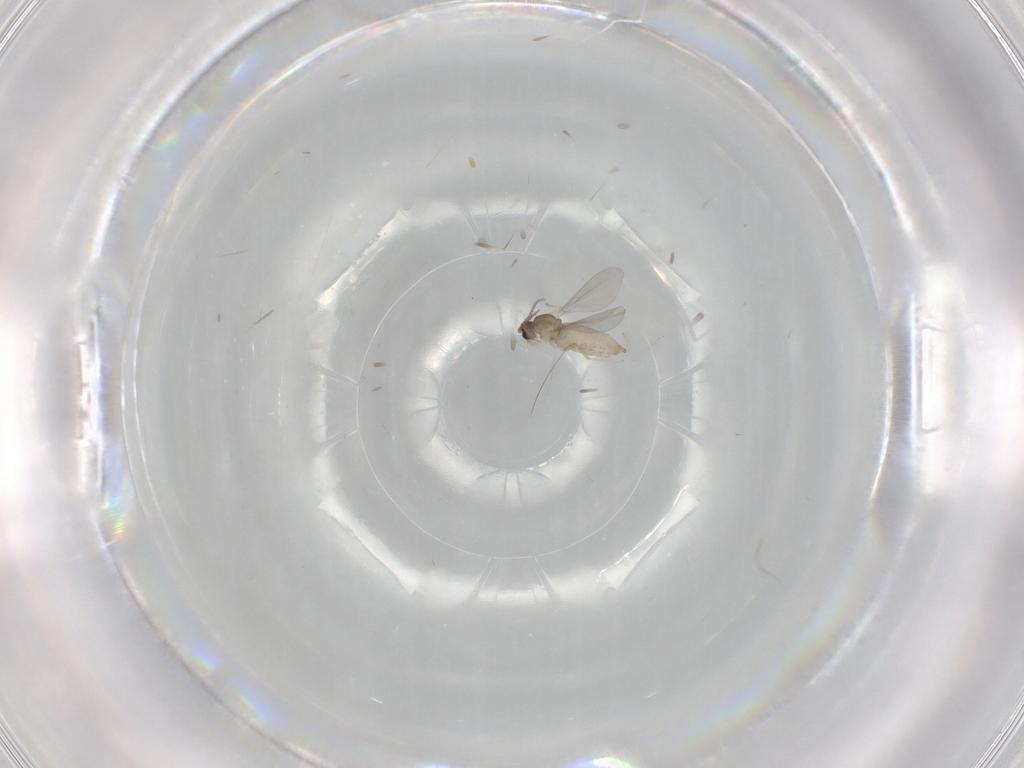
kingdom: Animalia
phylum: Arthropoda
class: Insecta
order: Diptera
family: Cecidomyiidae
